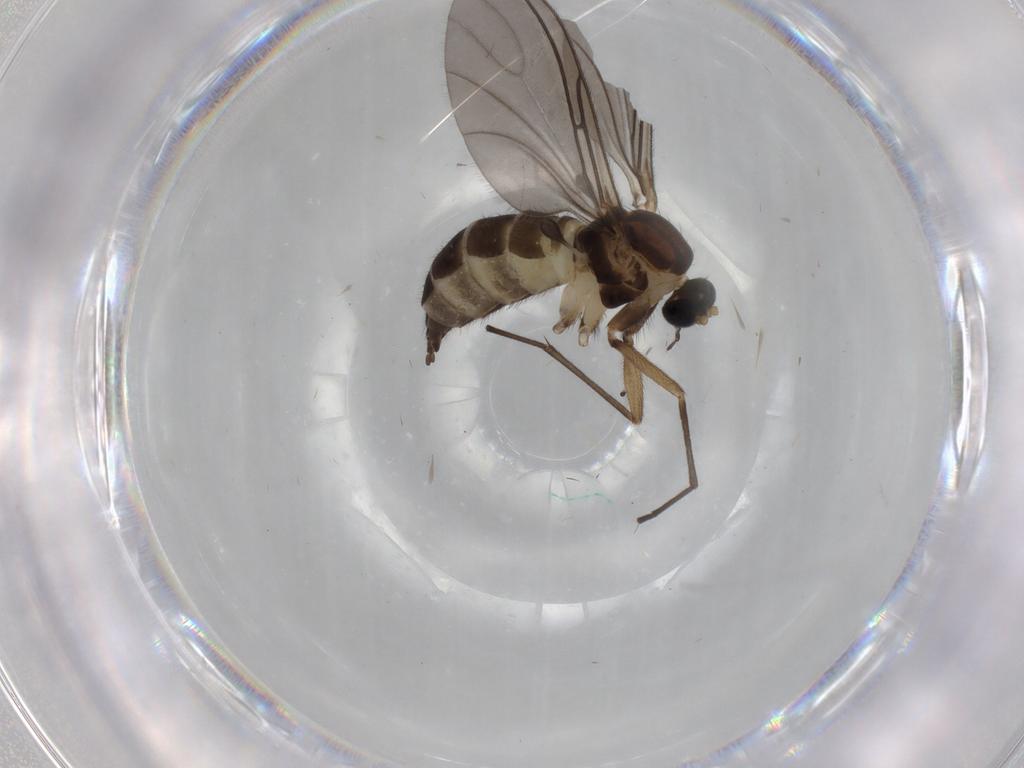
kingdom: Animalia
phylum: Arthropoda
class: Insecta
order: Diptera
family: Sciaridae
